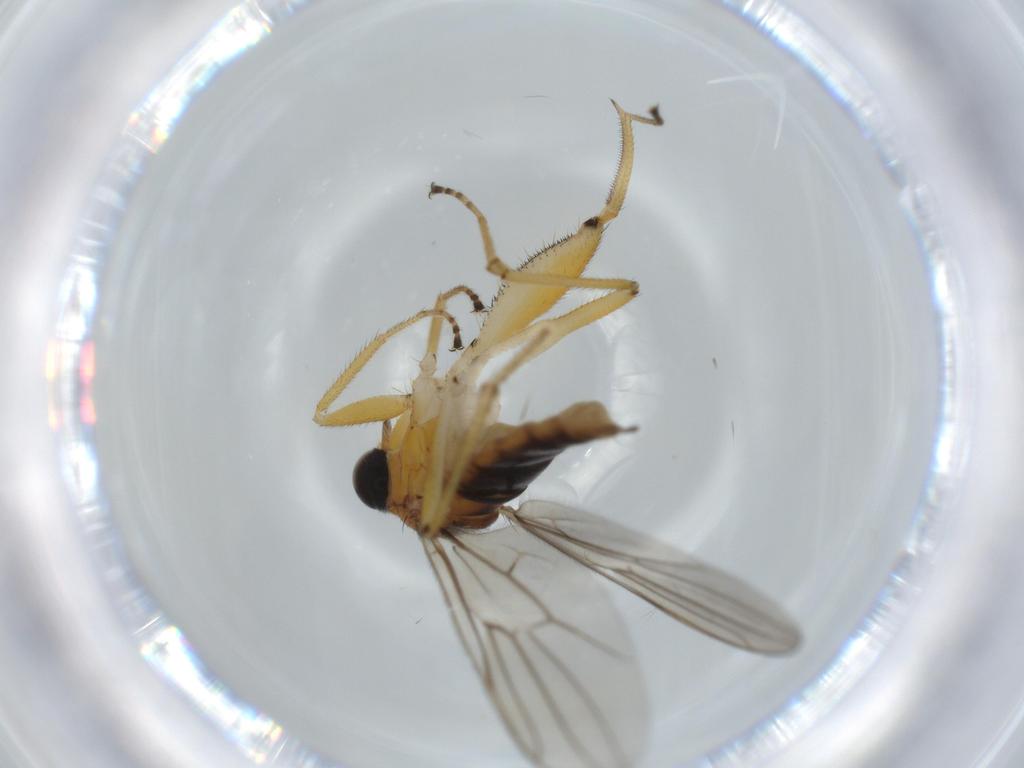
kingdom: Animalia
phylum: Arthropoda
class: Insecta
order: Diptera
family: Hybotidae
